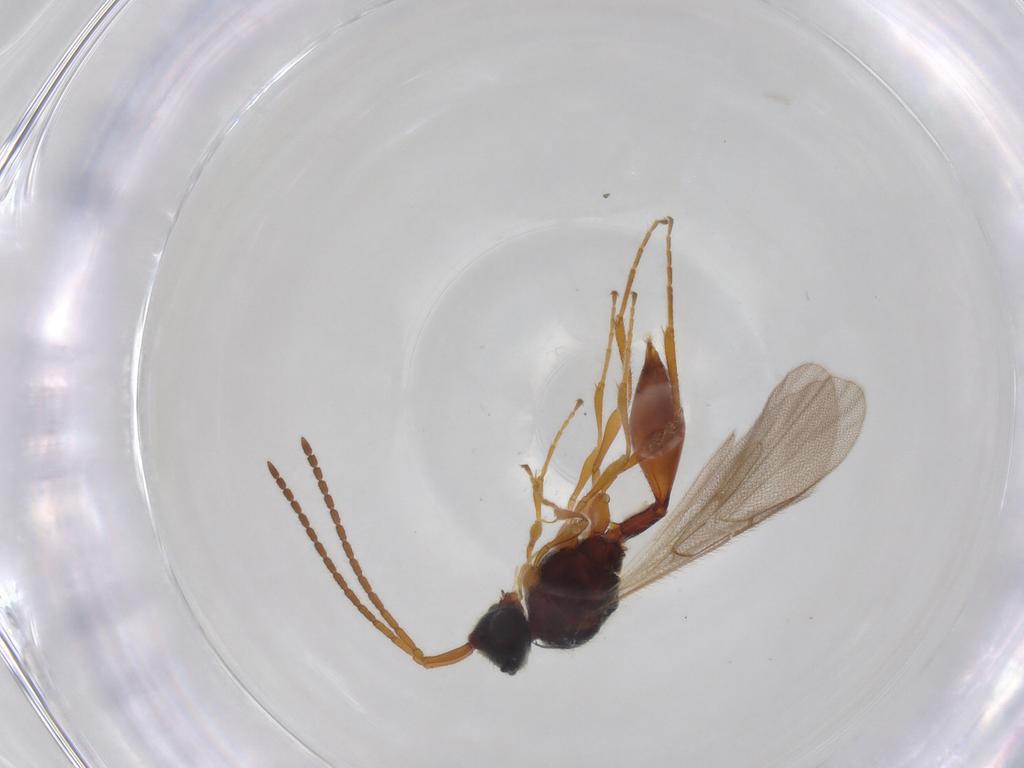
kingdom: Animalia
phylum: Arthropoda
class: Insecta
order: Hymenoptera
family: Diapriidae
